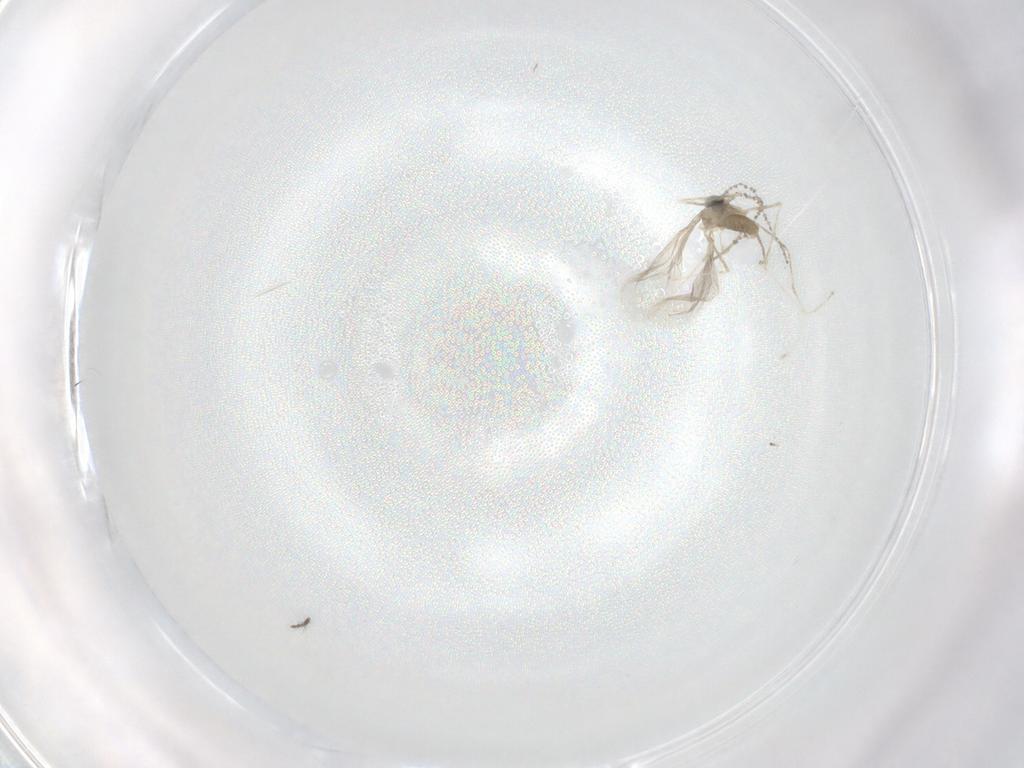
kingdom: Animalia
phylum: Arthropoda
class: Insecta
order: Diptera
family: Cecidomyiidae
